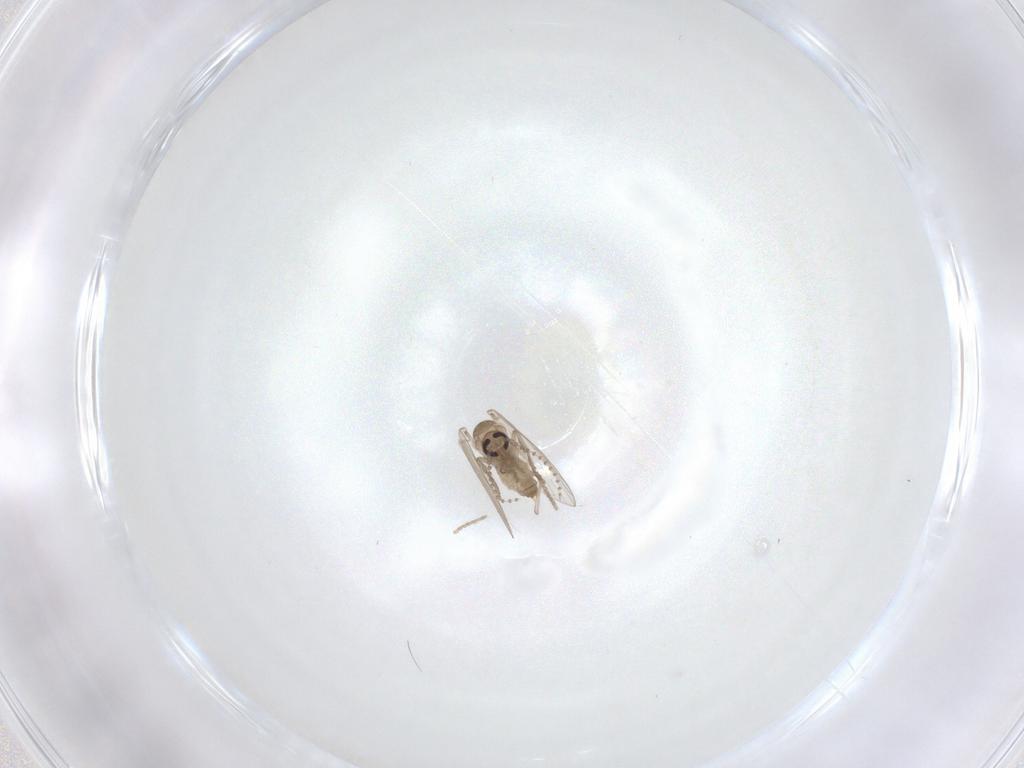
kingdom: Animalia
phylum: Arthropoda
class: Insecta
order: Diptera
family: Psychodidae
